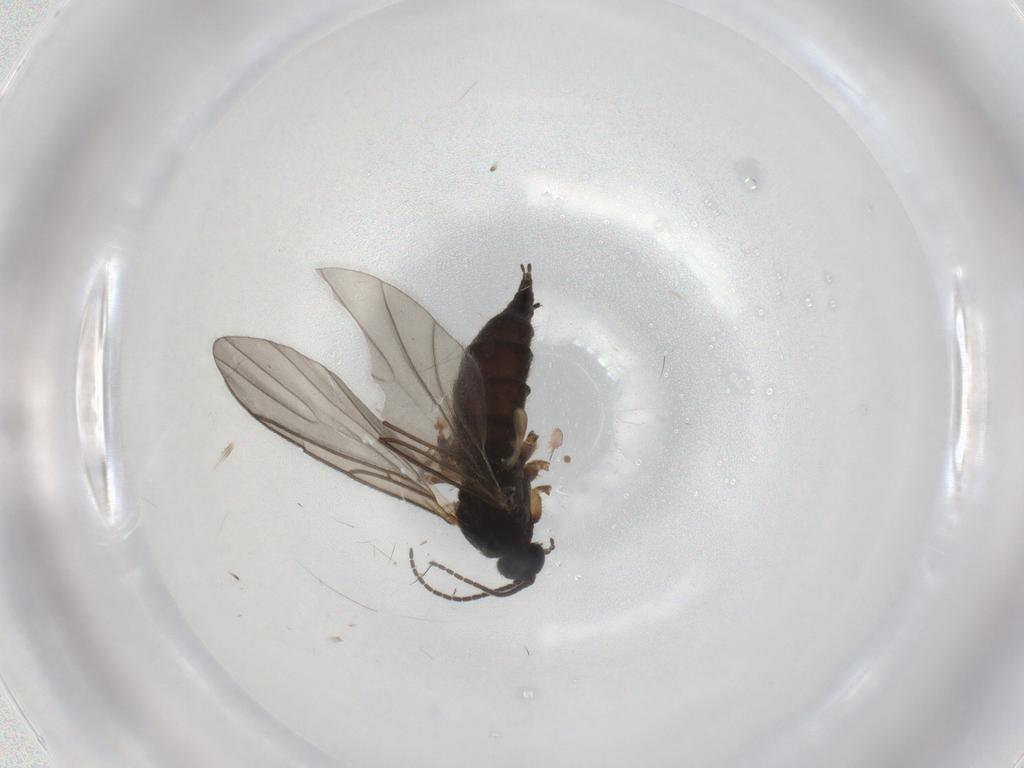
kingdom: Animalia
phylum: Arthropoda
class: Insecta
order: Diptera
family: Sciaridae
